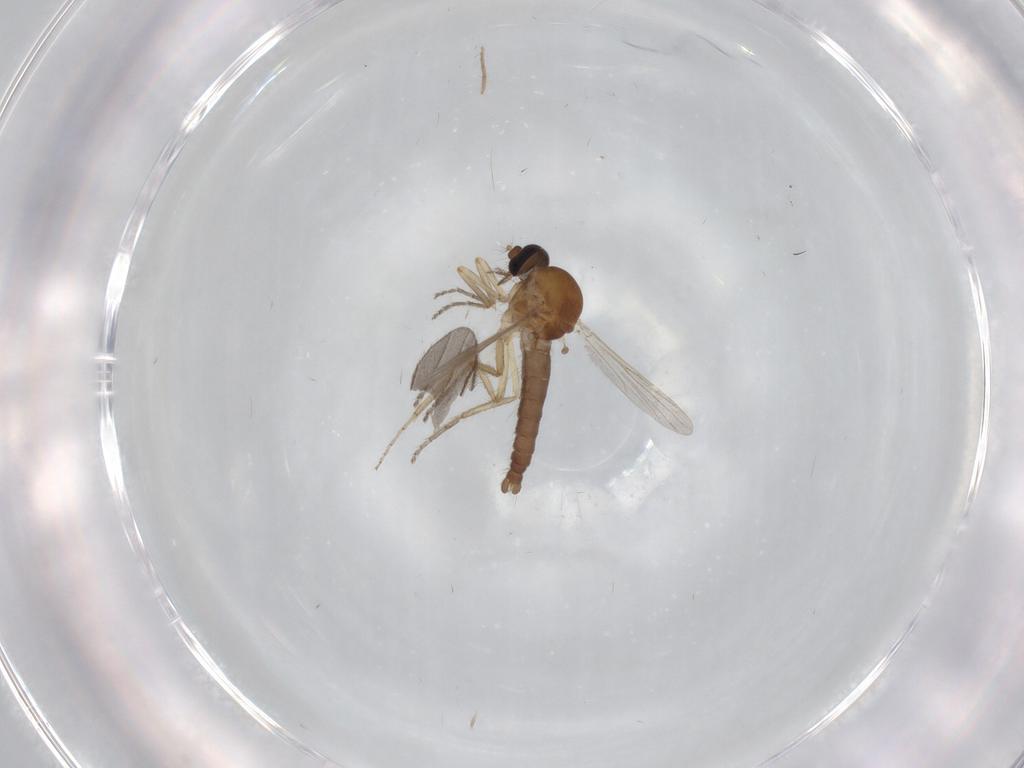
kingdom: Animalia
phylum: Arthropoda
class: Insecta
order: Diptera
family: Ceratopogonidae
